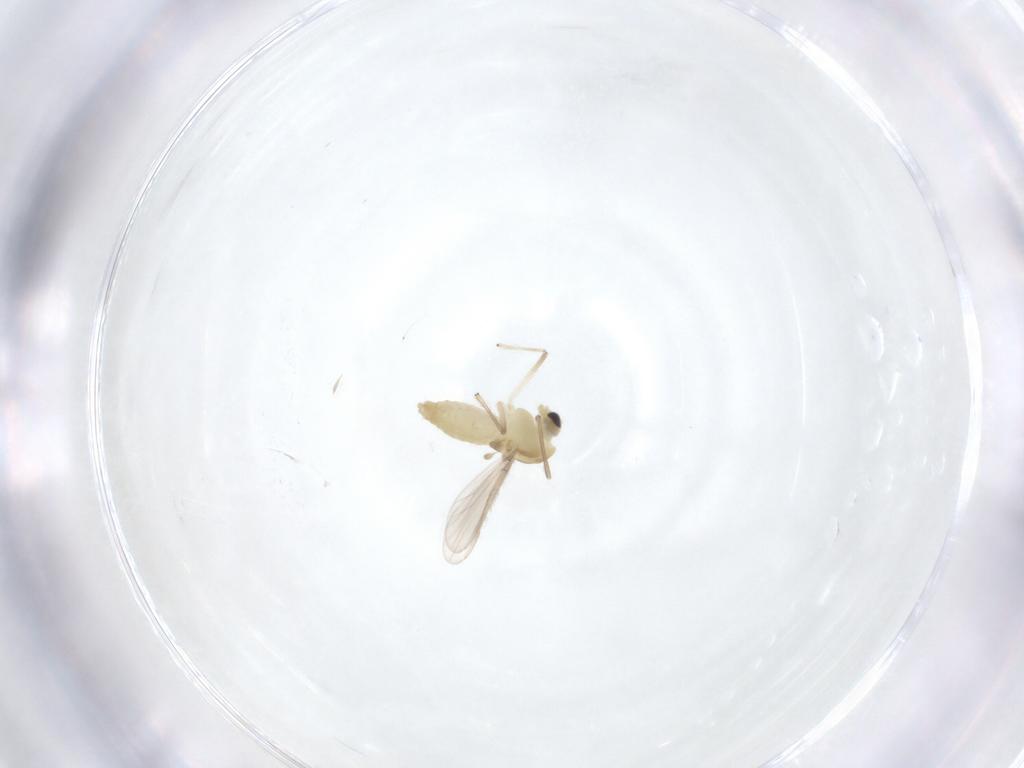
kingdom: Animalia
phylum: Arthropoda
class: Insecta
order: Diptera
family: Chironomidae
